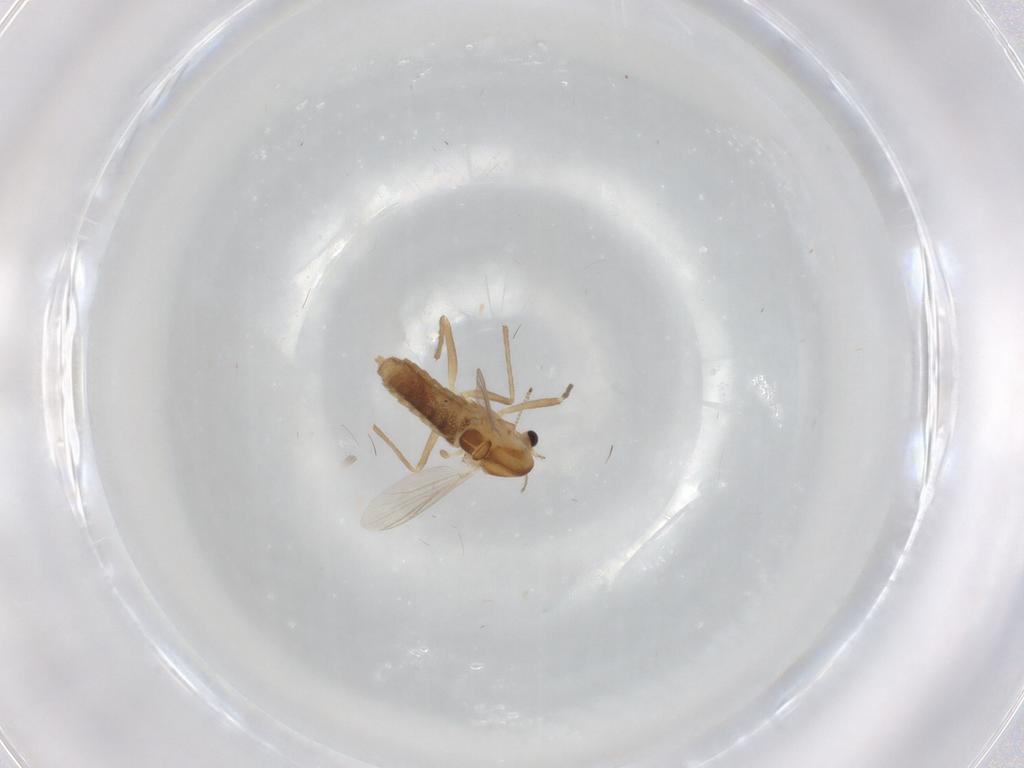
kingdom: Animalia
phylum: Arthropoda
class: Insecta
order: Diptera
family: Chironomidae
